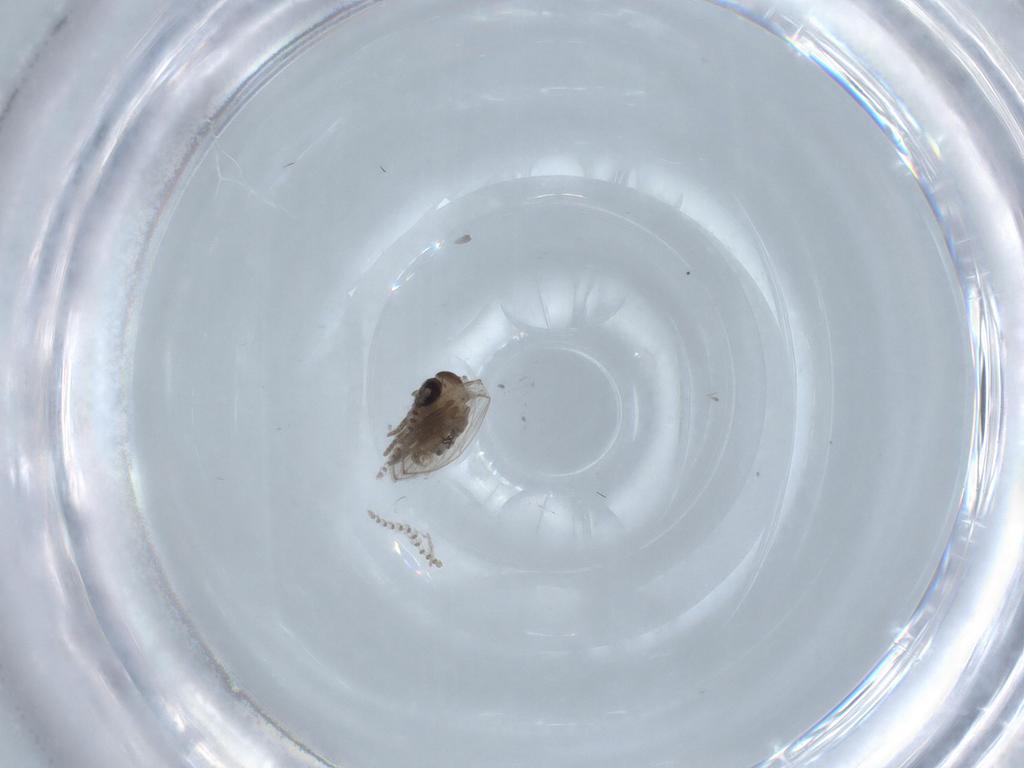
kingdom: Animalia
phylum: Arthropoda
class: Insecta
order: Diptera
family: Psychodidae
